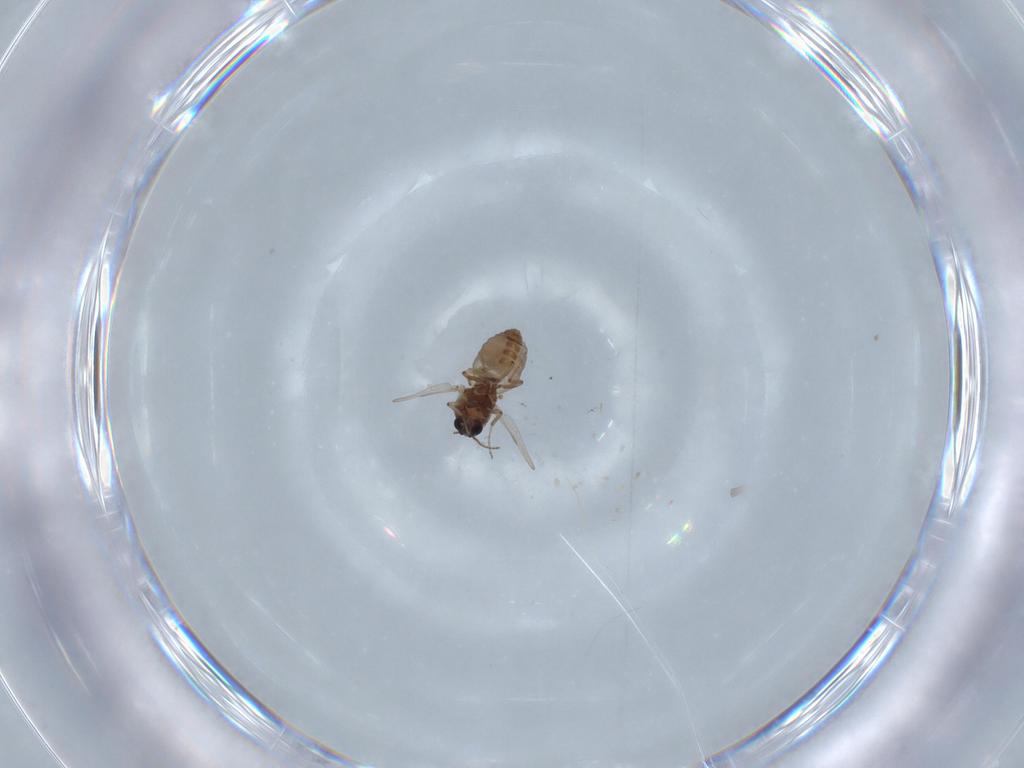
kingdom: Animalia
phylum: Arthropoda
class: Insecta
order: Diptera
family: Ceratopogonidae
